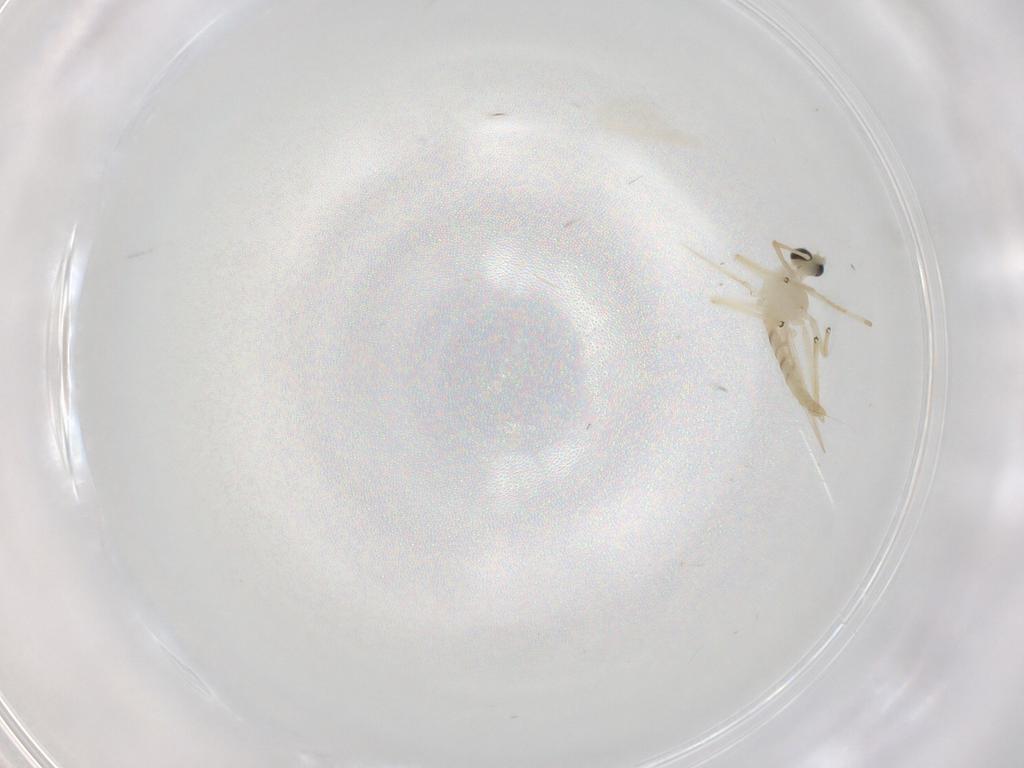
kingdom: Animalia
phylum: Arthropoda
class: Insecta
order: Diptera
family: Chironomidae
